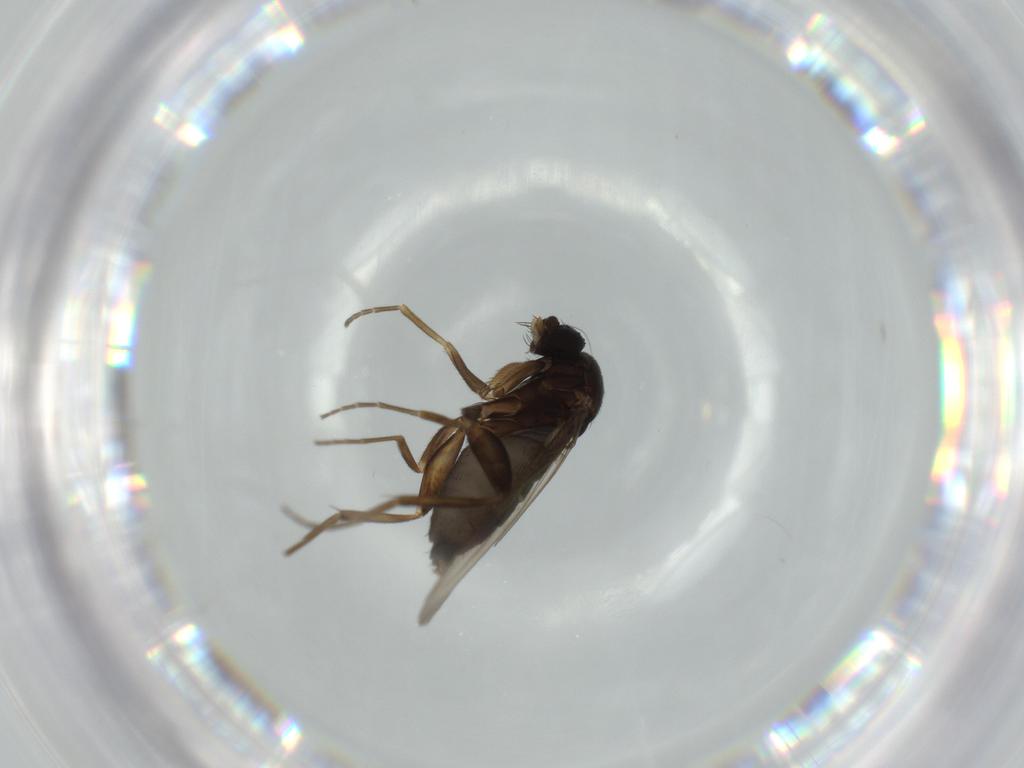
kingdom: Animalia
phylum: Arthropoda
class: Insecta
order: Diptera
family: Phoridae
